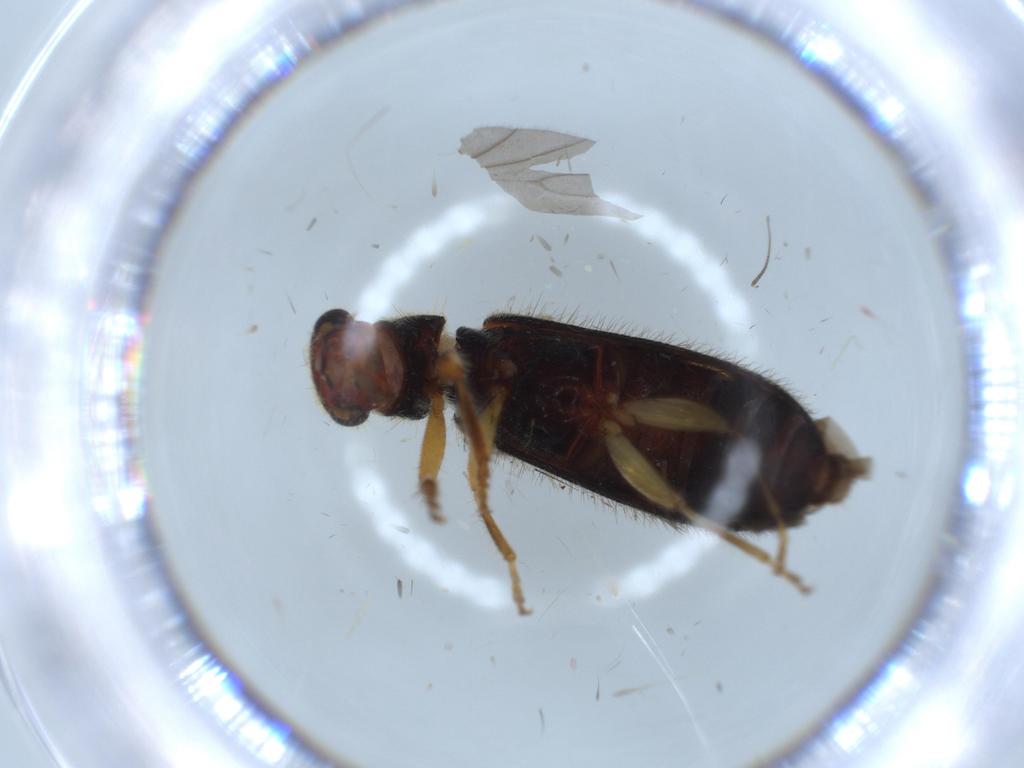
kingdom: Animalia
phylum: Arthropoda
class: Insecta
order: Coleoptera
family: Cleridae
